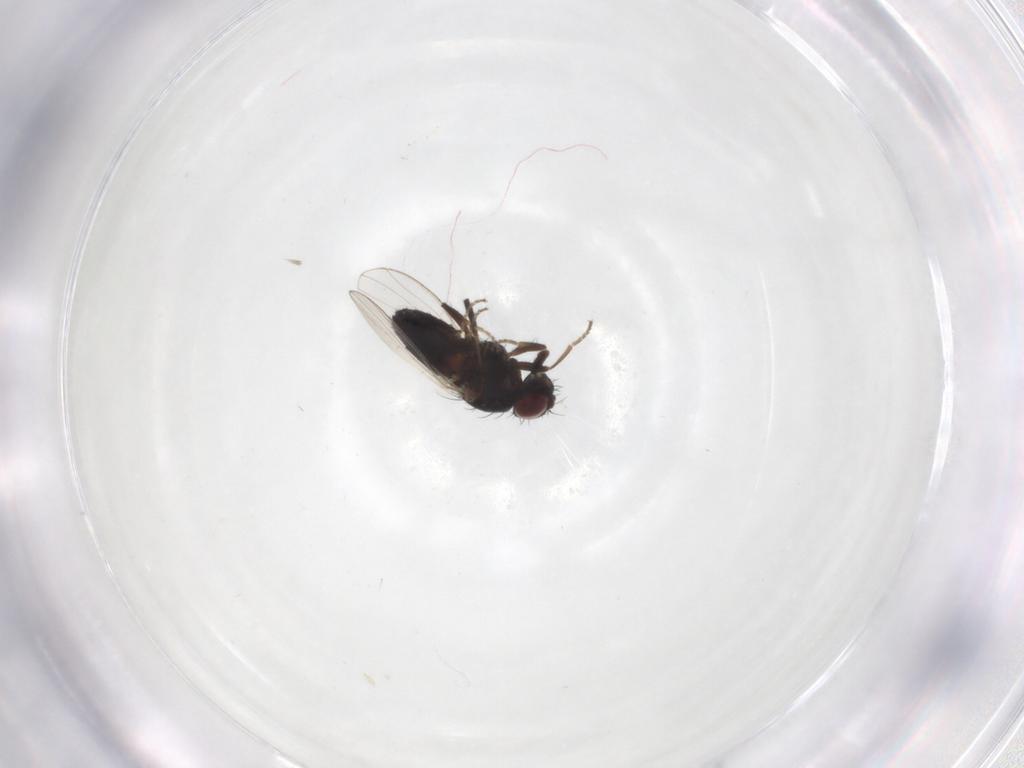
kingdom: Animalia
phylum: Arthropoda
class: Insecta
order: Diptera
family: Cecidomyiidae
